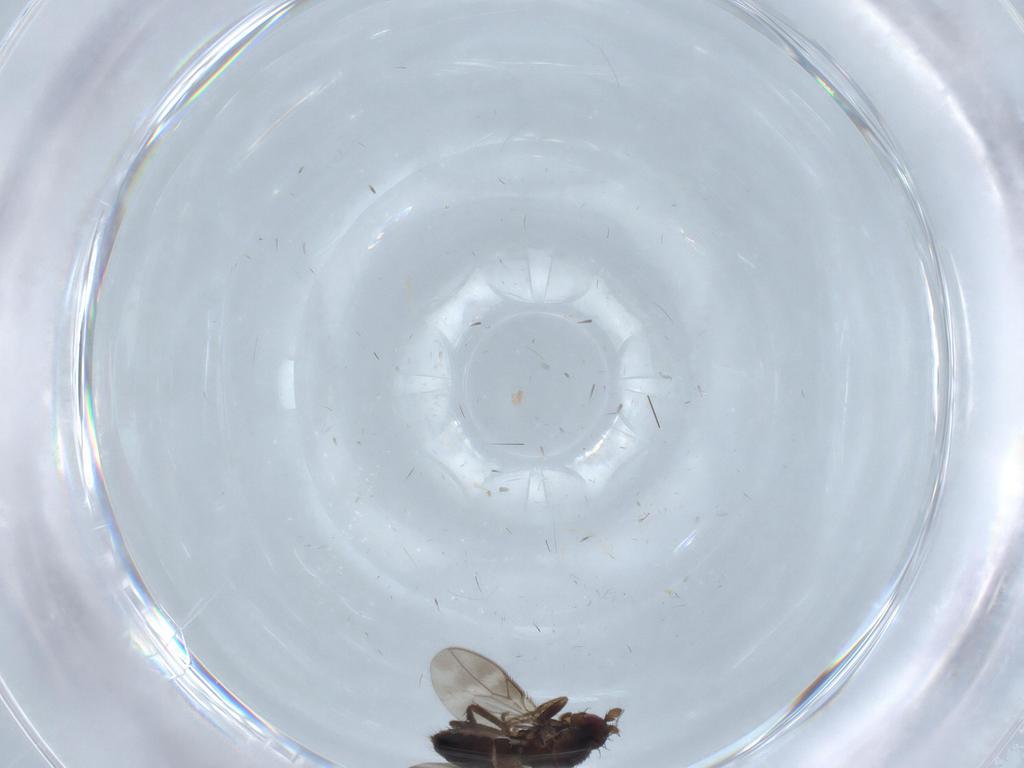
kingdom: Animalia
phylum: Arthropoda
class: Insecta
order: Diptera
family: Sphaeroceridae
